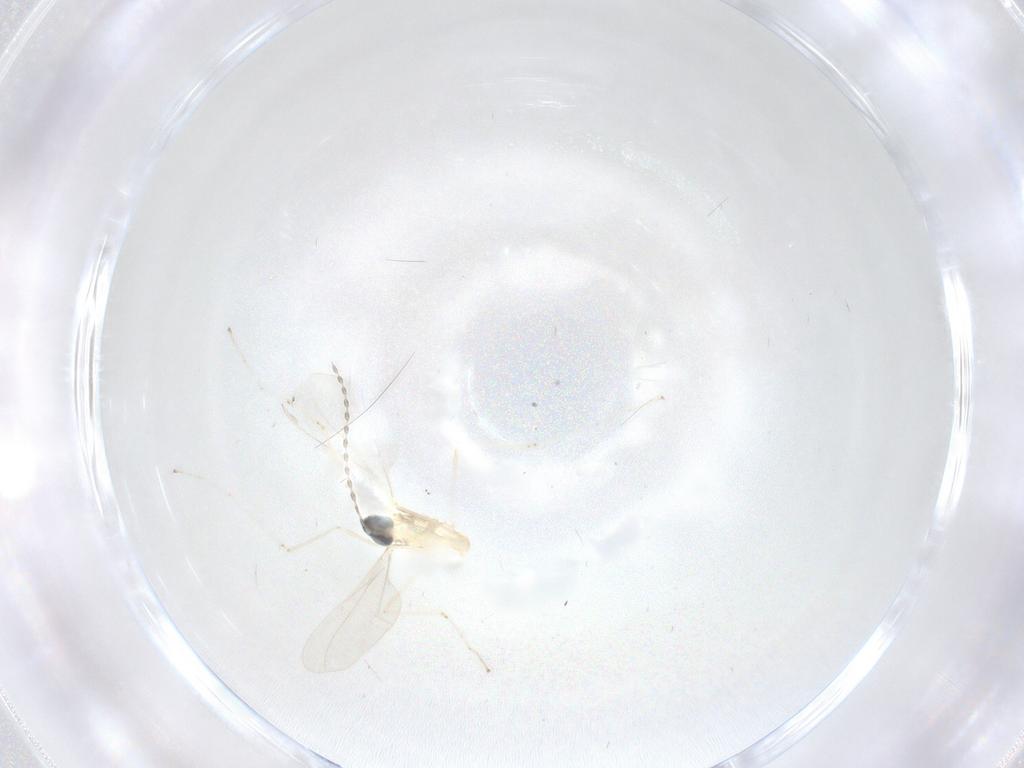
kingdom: Animalia
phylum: Arthropoda
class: Insecta
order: Diptera
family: Cecidomyiidae
